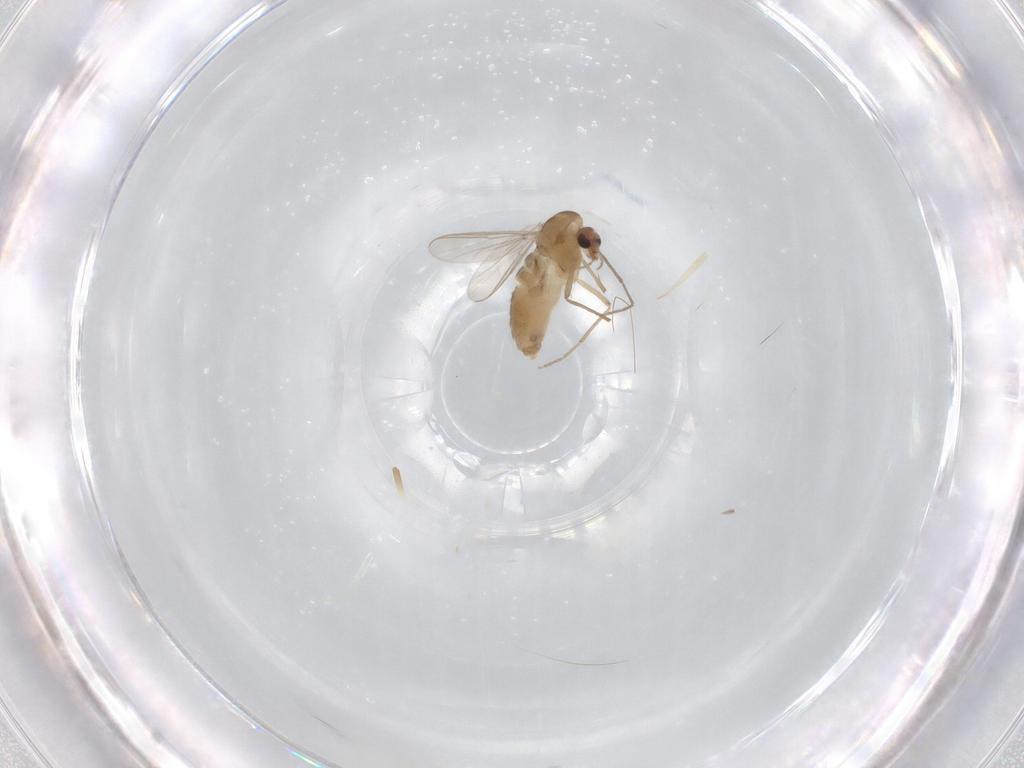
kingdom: Animalia
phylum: Arthropoda
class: Insecta
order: Diptera
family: Chironomidae
